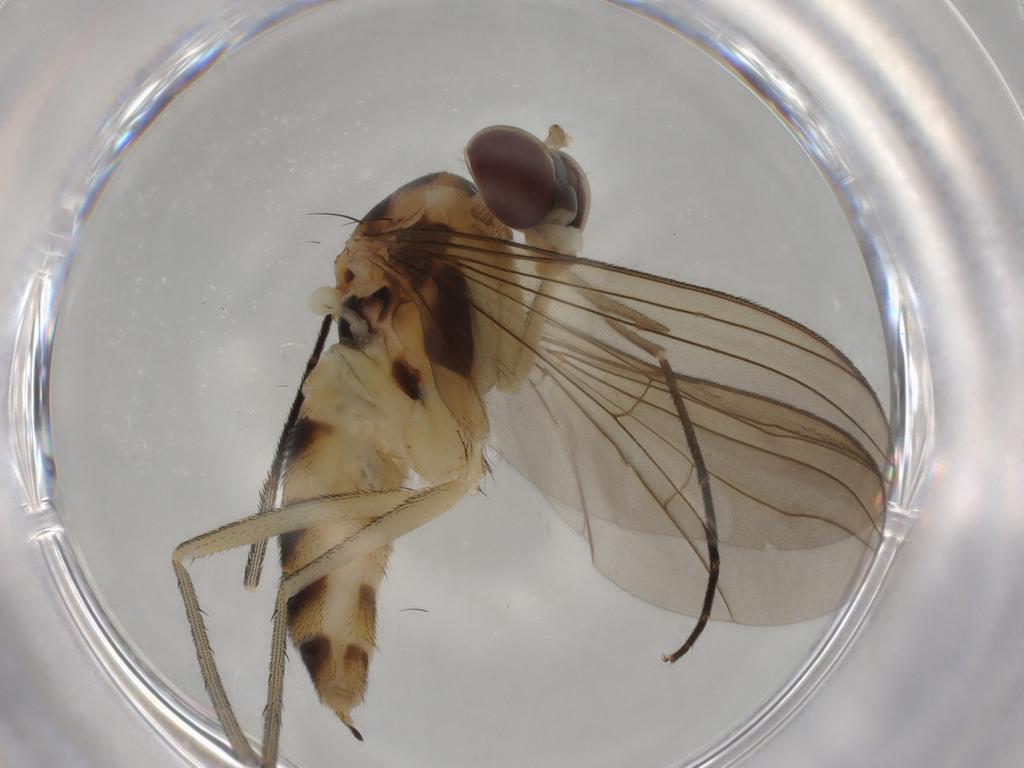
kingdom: Animalia
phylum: Arthropoda
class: Insecta
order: Diptera
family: Syrphidae
